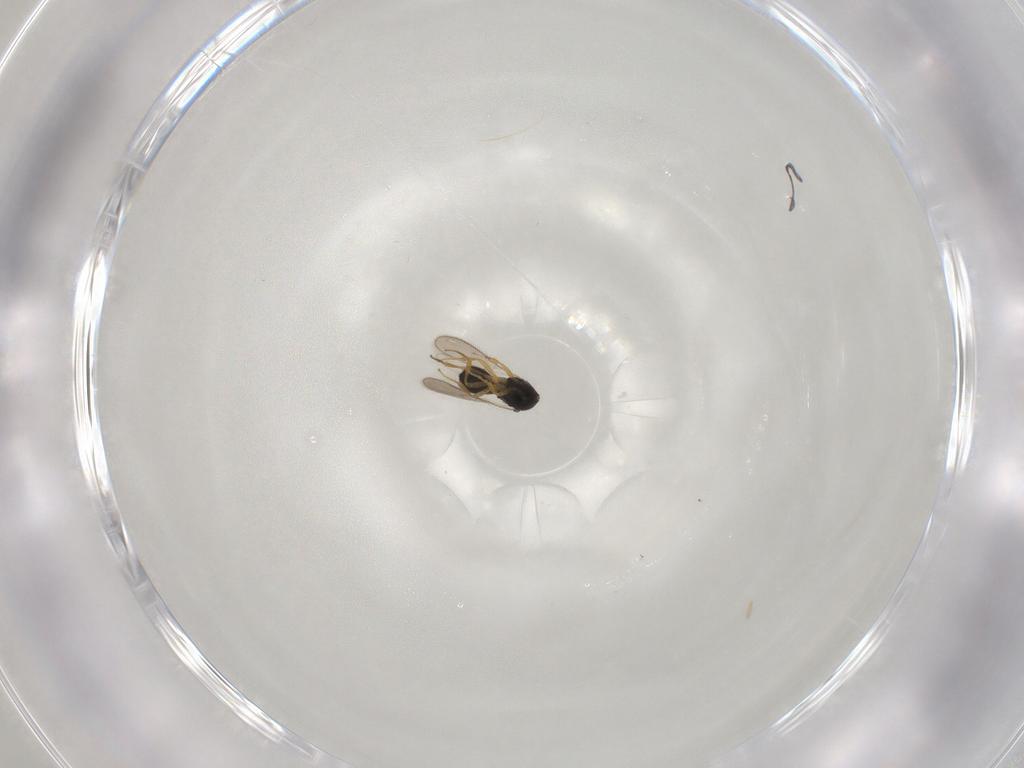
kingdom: Animalia
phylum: Arthropoda
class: Insecta
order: Hymenoptera
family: Scelionidae
